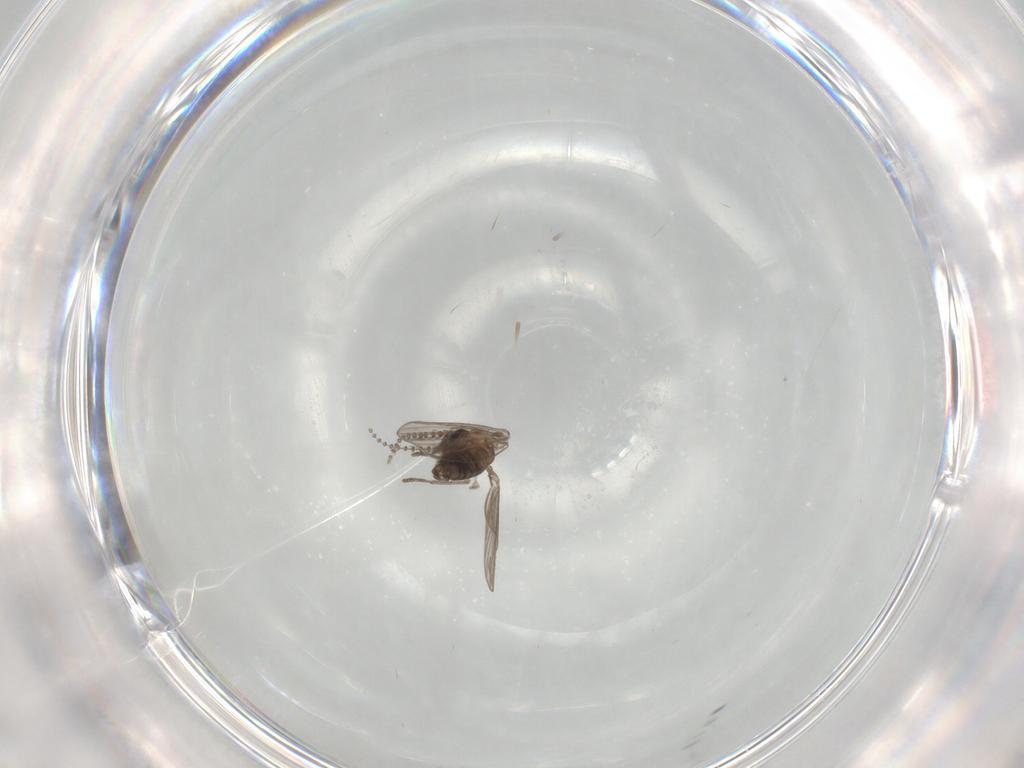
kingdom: Animalia
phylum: Arthropoda
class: Insecta
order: Diptera
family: Psychodidae
